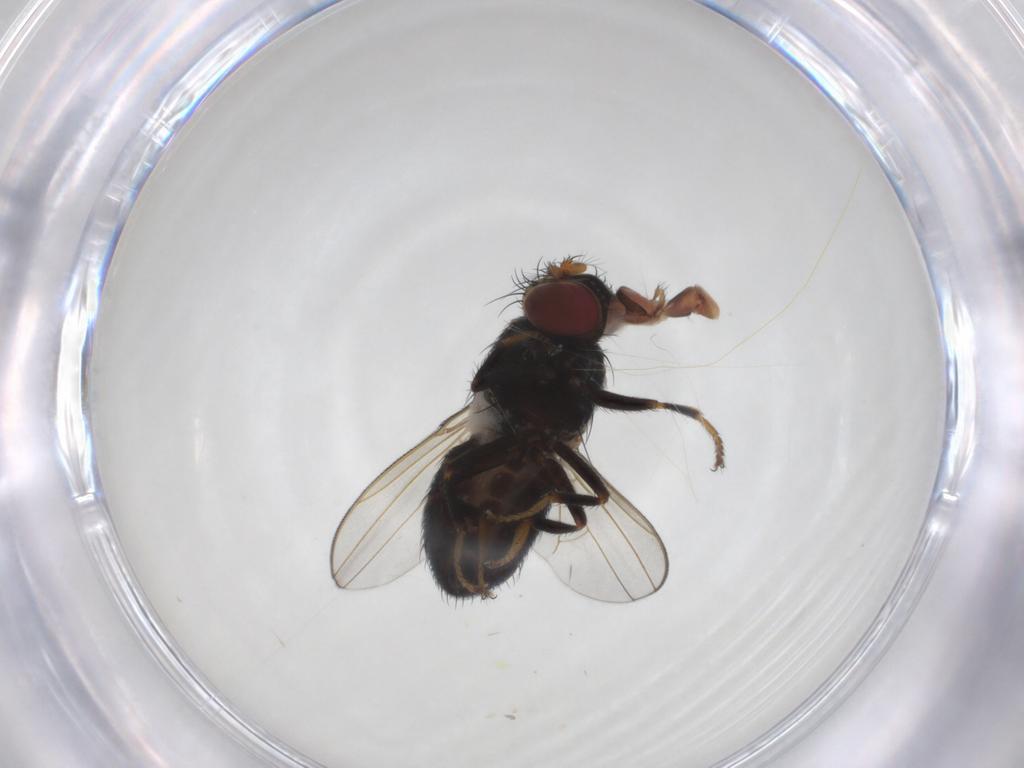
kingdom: Animalia
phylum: Arthropoda
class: Insecta
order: Diptera
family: Ephydridae
